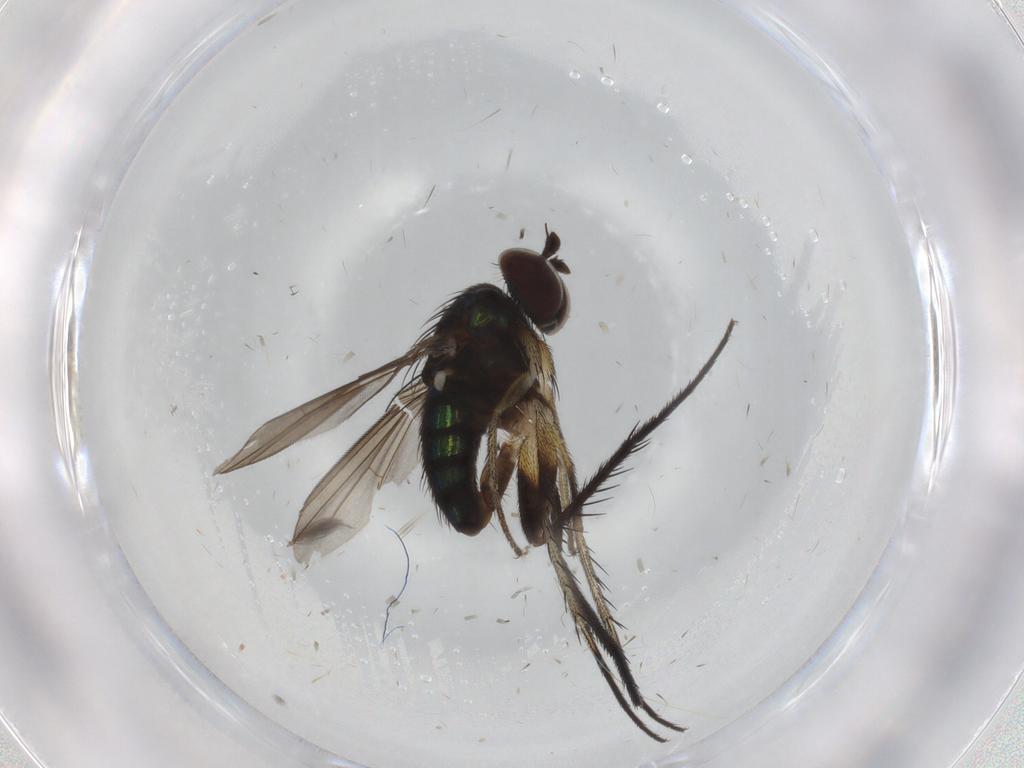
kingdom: Animalia
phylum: Arthropoda
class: Insecta
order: Diptera
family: Dolichopodidae
